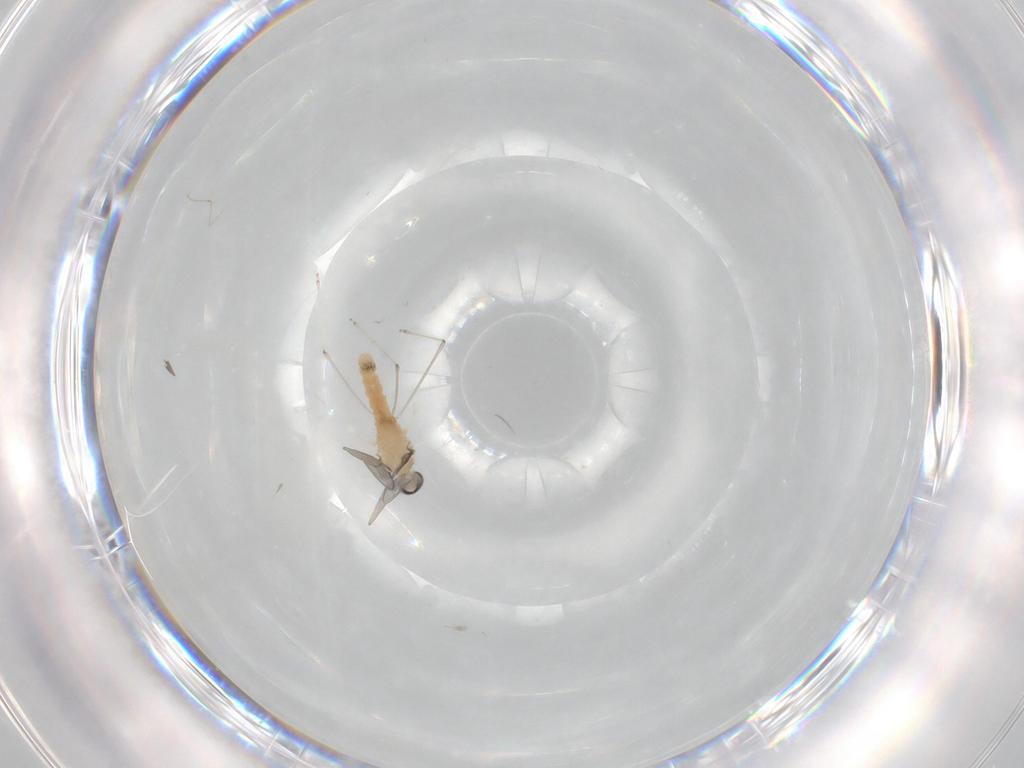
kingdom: Animalia
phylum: Arthropoda
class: Insecta
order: Diptera
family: Cecidomyiidae
